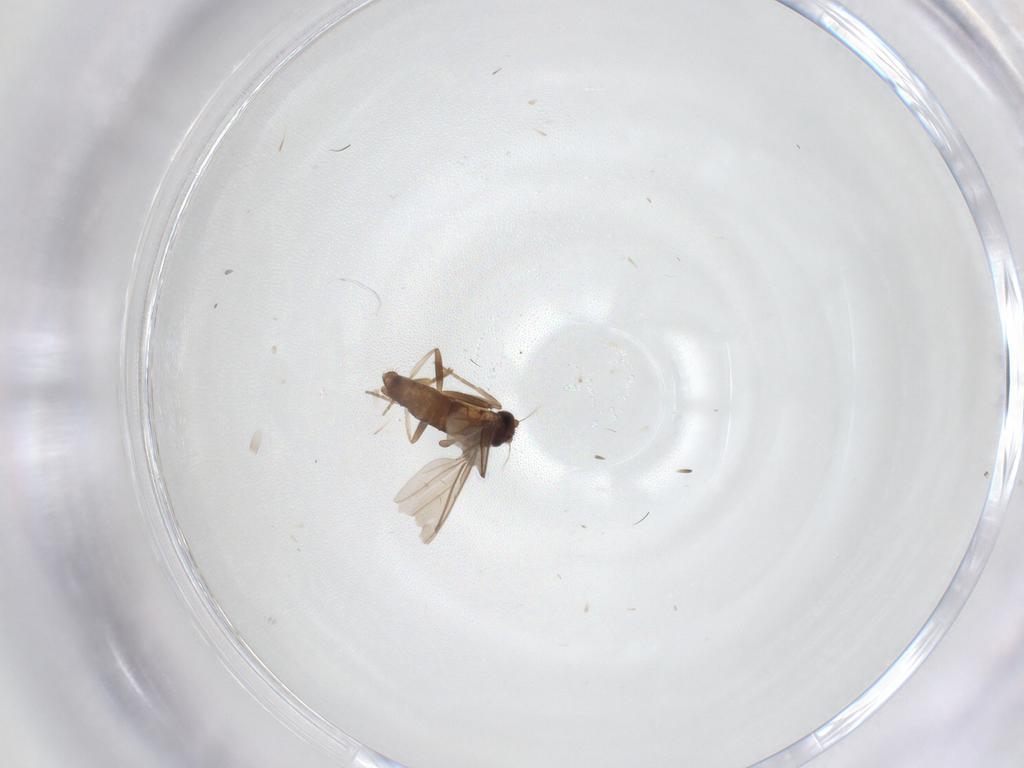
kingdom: Animalia
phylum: Arthropoda
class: Insecta
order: Diptera
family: Phoridae
